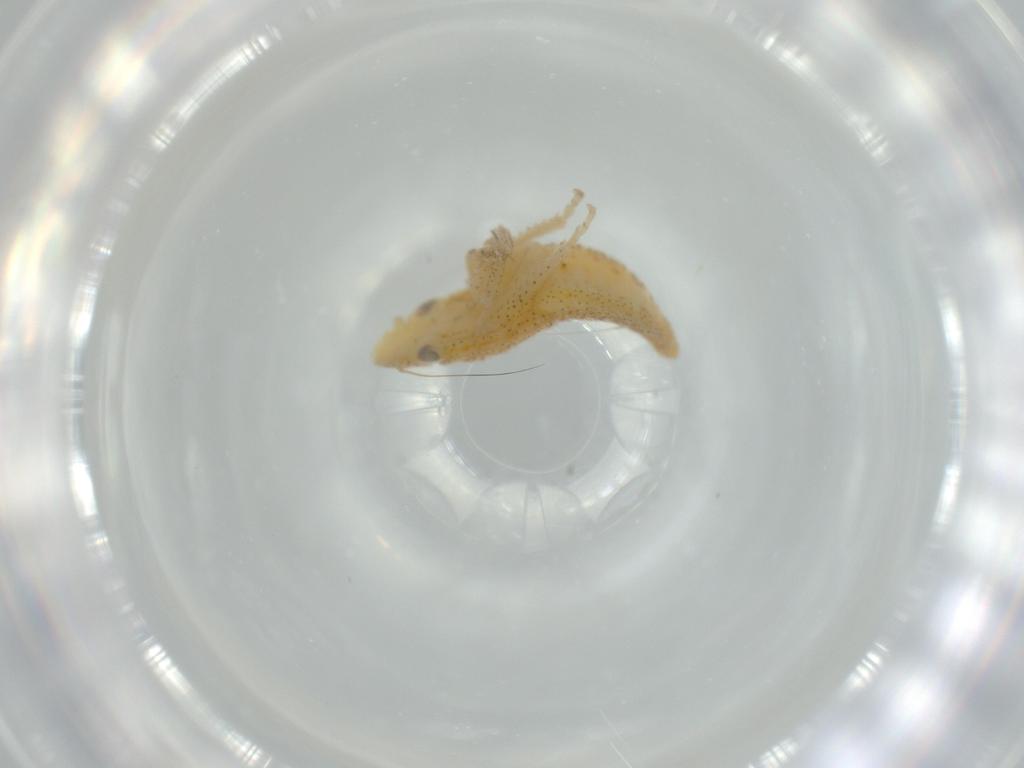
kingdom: Animalia
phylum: Arthropoda
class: Insecta
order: Hemiptera
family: Cicadellidae
